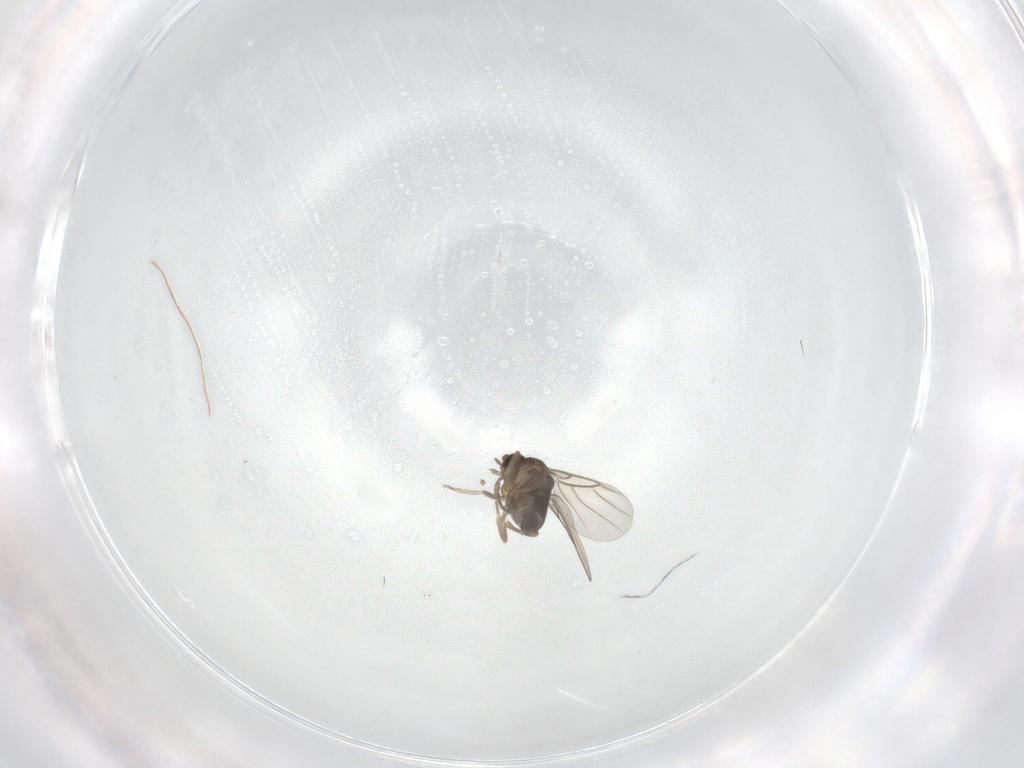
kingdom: Animalia
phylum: Arthropoda
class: Insecta
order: Diptera
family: Phoridae
